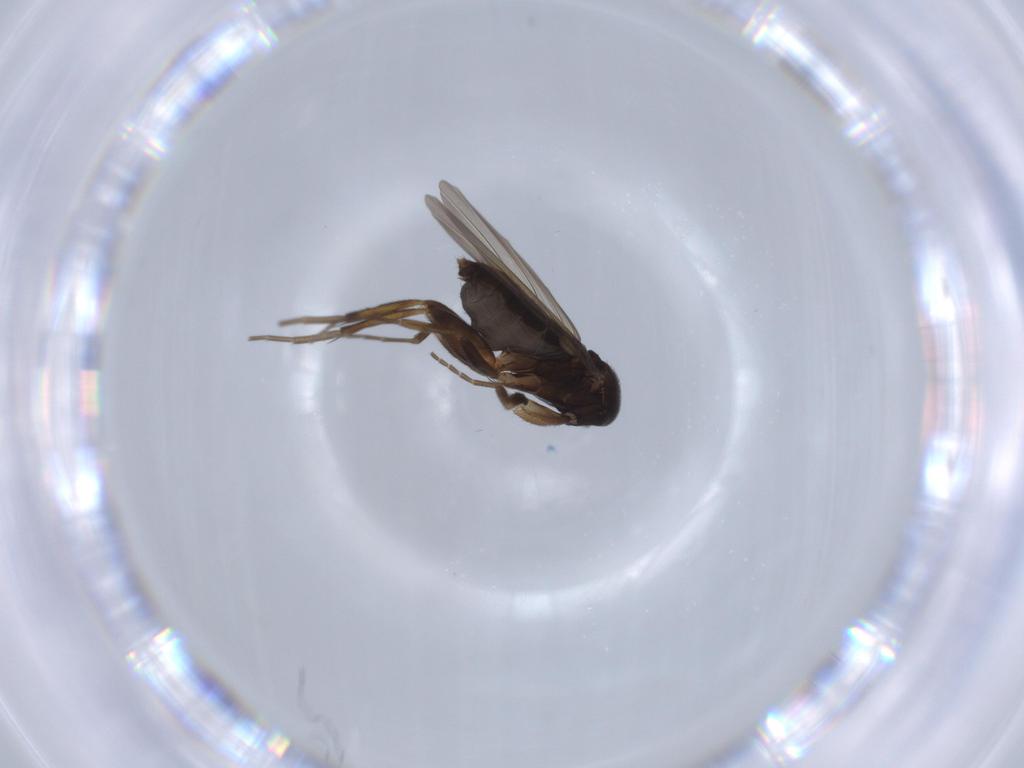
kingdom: Animalia
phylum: Arthropoda
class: Insecta
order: Diptera
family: Phoridae
